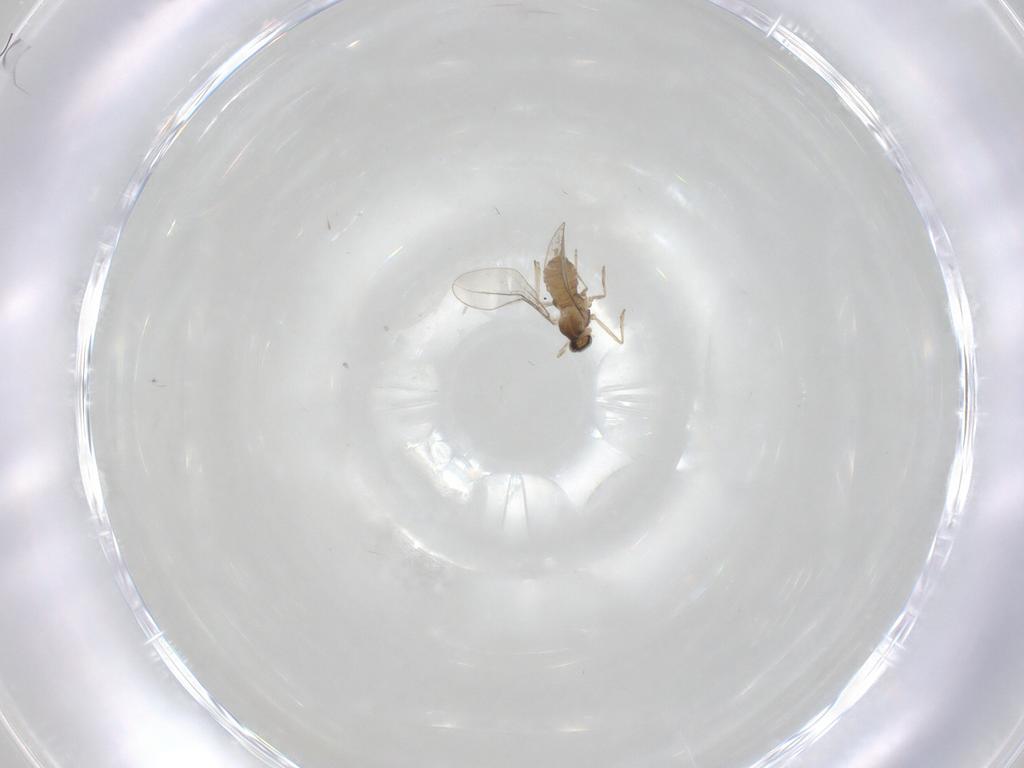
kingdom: Animalia
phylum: Arthropoda
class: Insecta
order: Diptera
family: Cecidomyiidae
